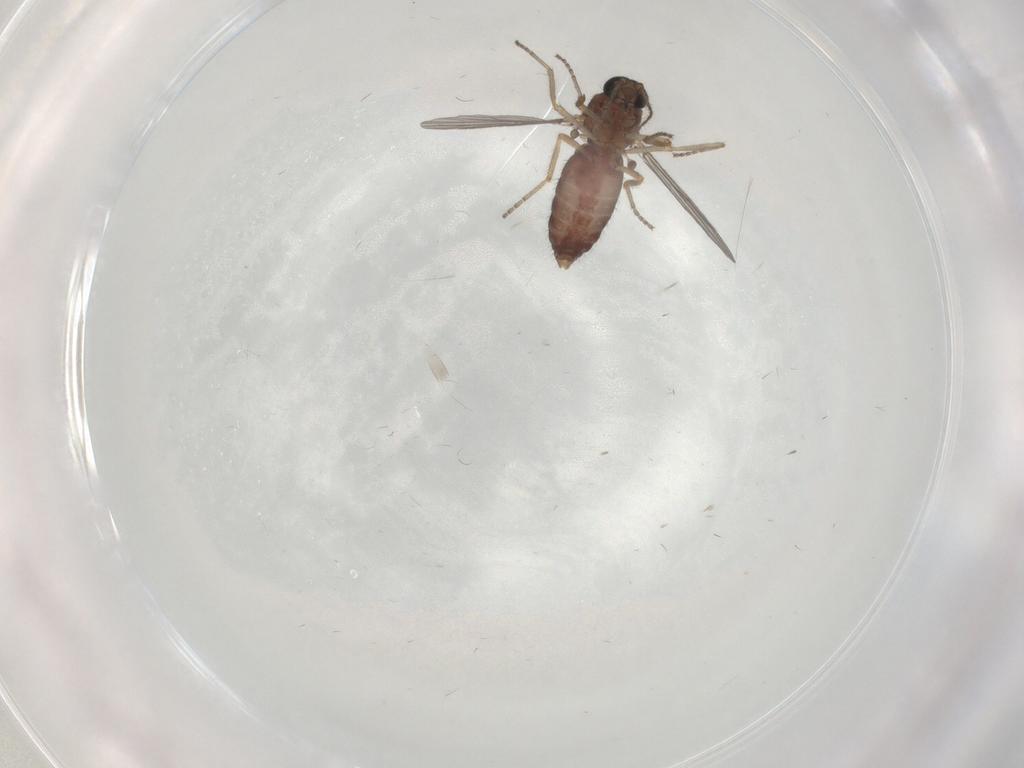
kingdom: Animalia
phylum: Arthropoda
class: Insecta
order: Diptera
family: Ceratopogonidae
